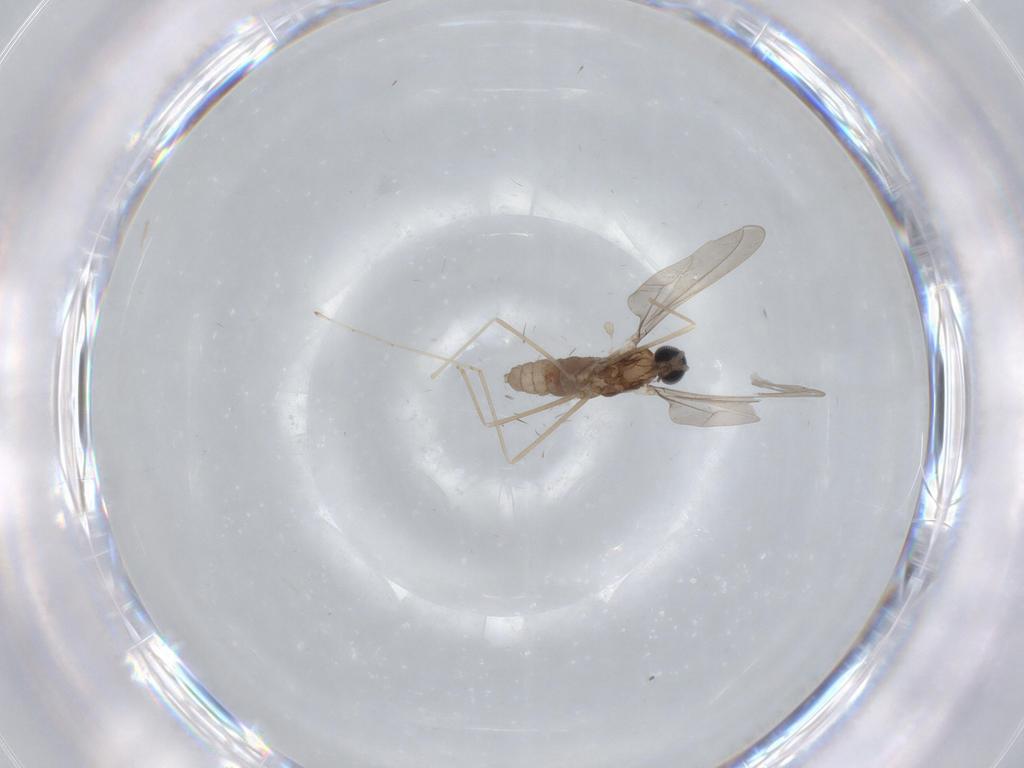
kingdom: Animalia
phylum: Arthropoda
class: Insecta
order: Diptera
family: Cecidomyiidae
